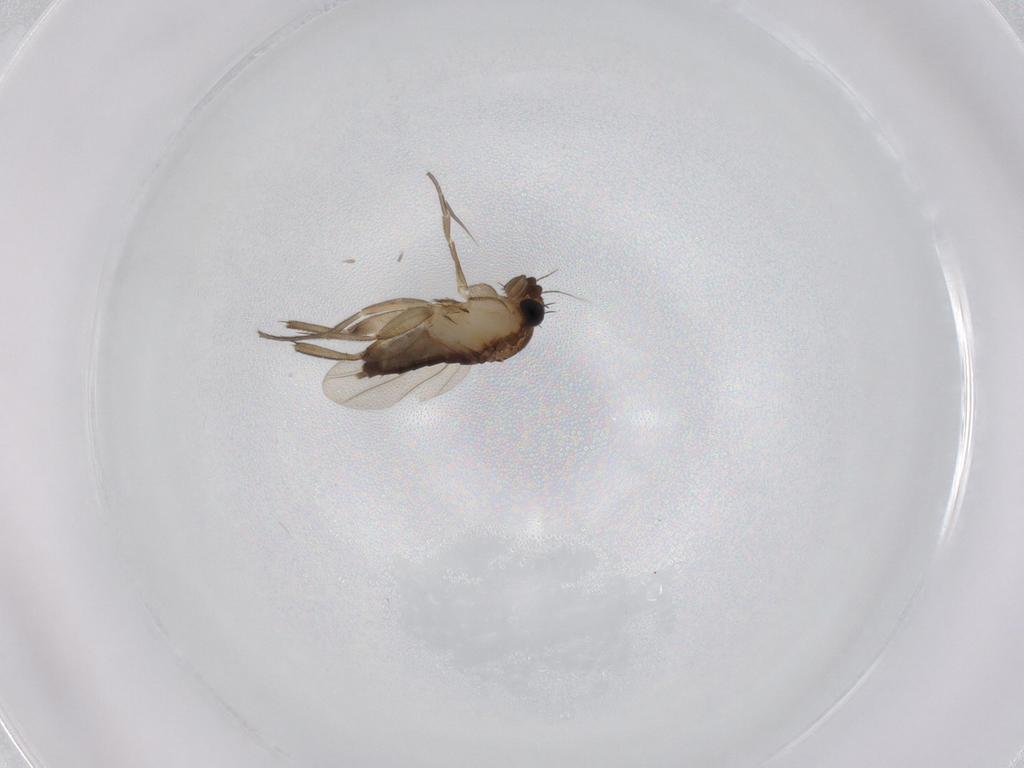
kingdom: Animalia
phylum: Arthropoda
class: Insecta
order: Diptera
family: Phoridae
